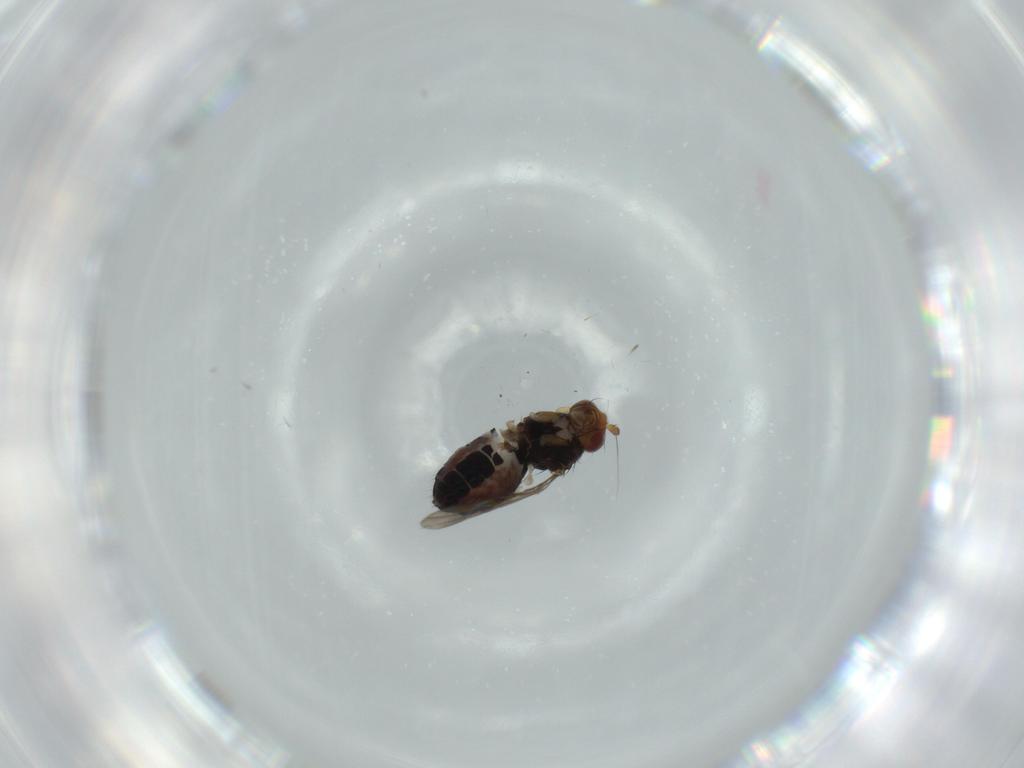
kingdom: Animalia
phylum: Arthropoda
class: Insecta
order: Diptera
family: Sphaeroceridae
